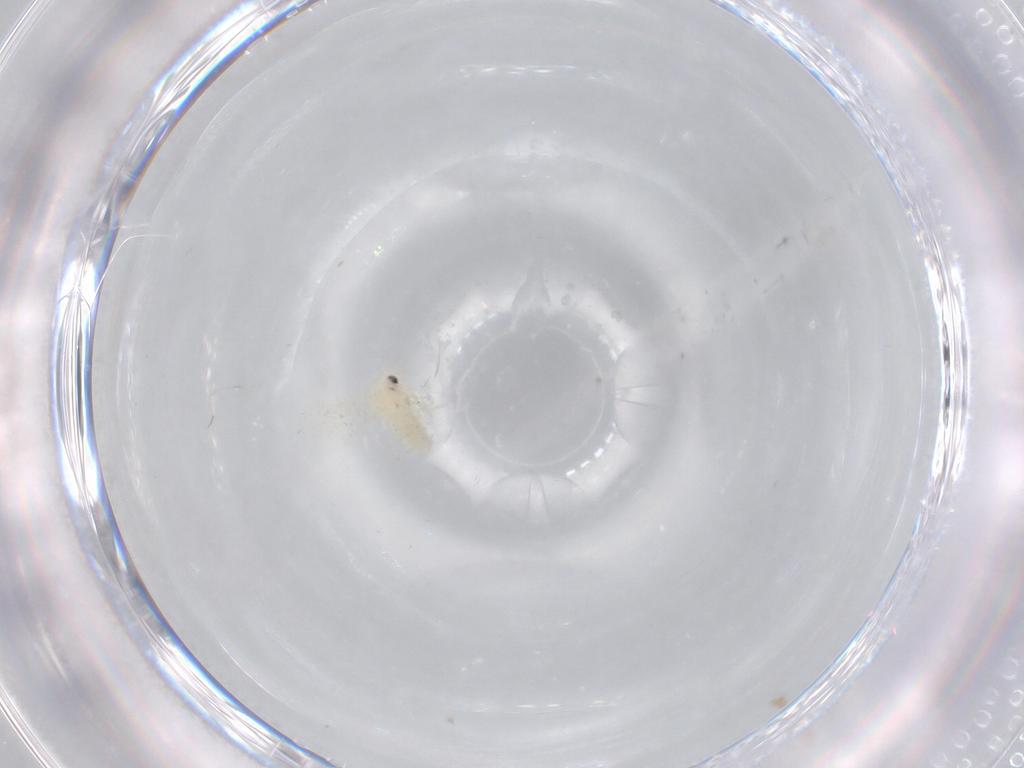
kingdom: Animalia
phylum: Arthropoda
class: Insecta
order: Hemiptera
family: Aleyrodidae
